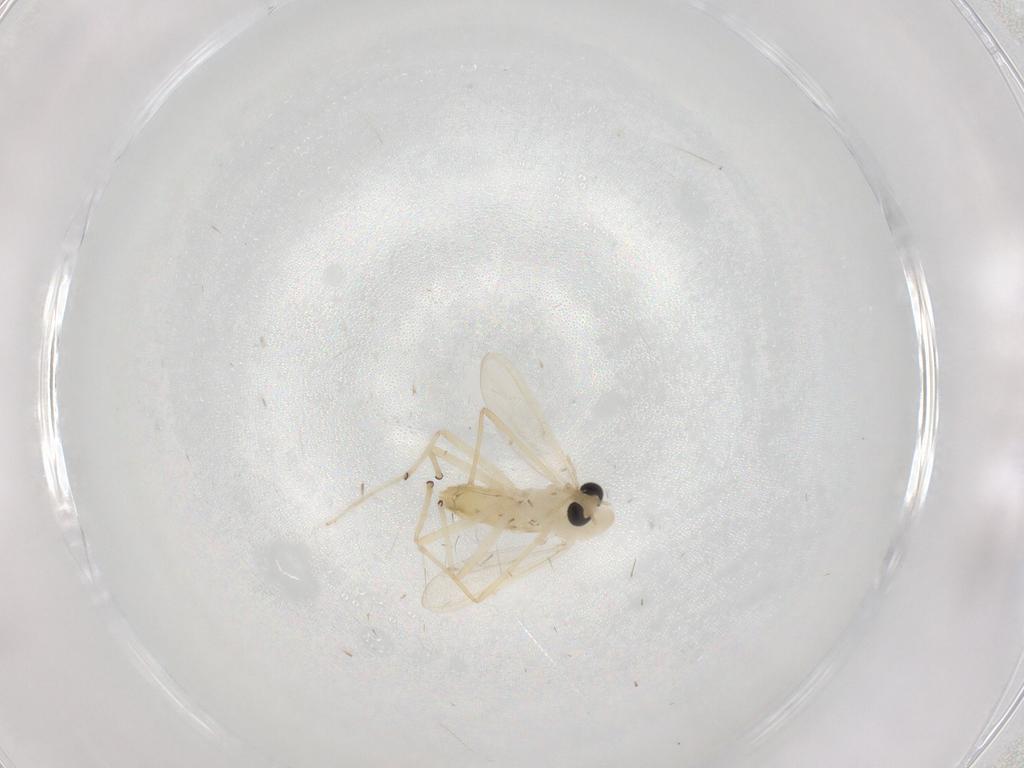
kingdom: Animalia
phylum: Arthropoda
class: Insecta
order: Diptera
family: Chironomidae
